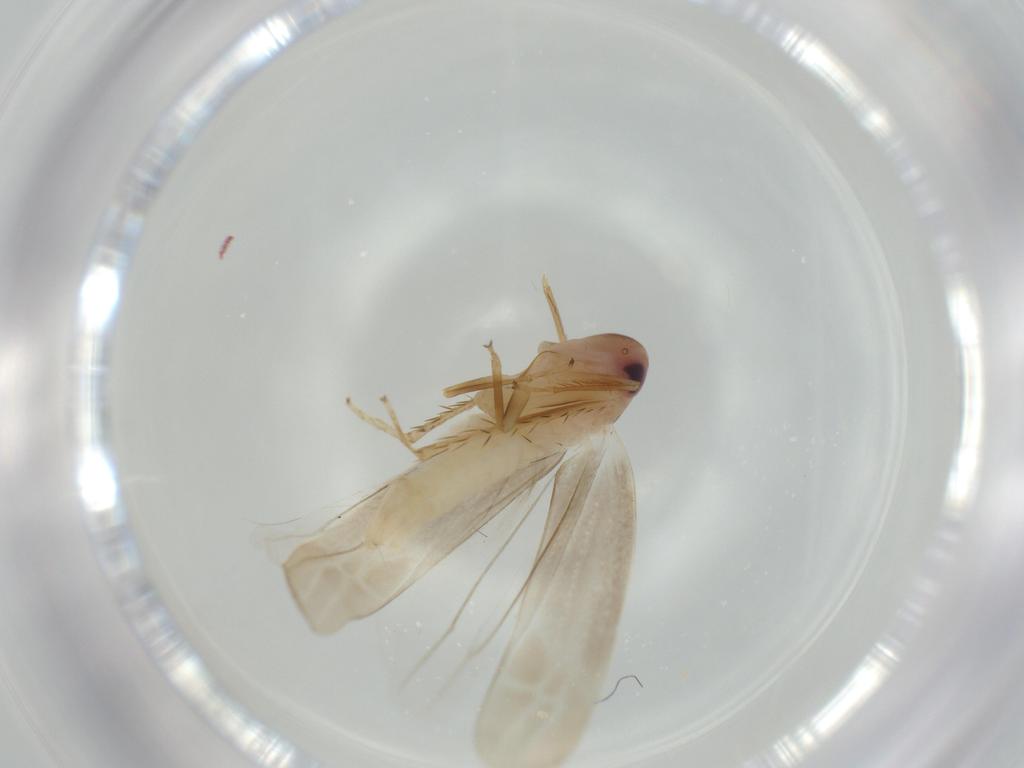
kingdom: Animalia
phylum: Arthropoda
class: Insecta
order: Hemiptera
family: Cicadellidae
